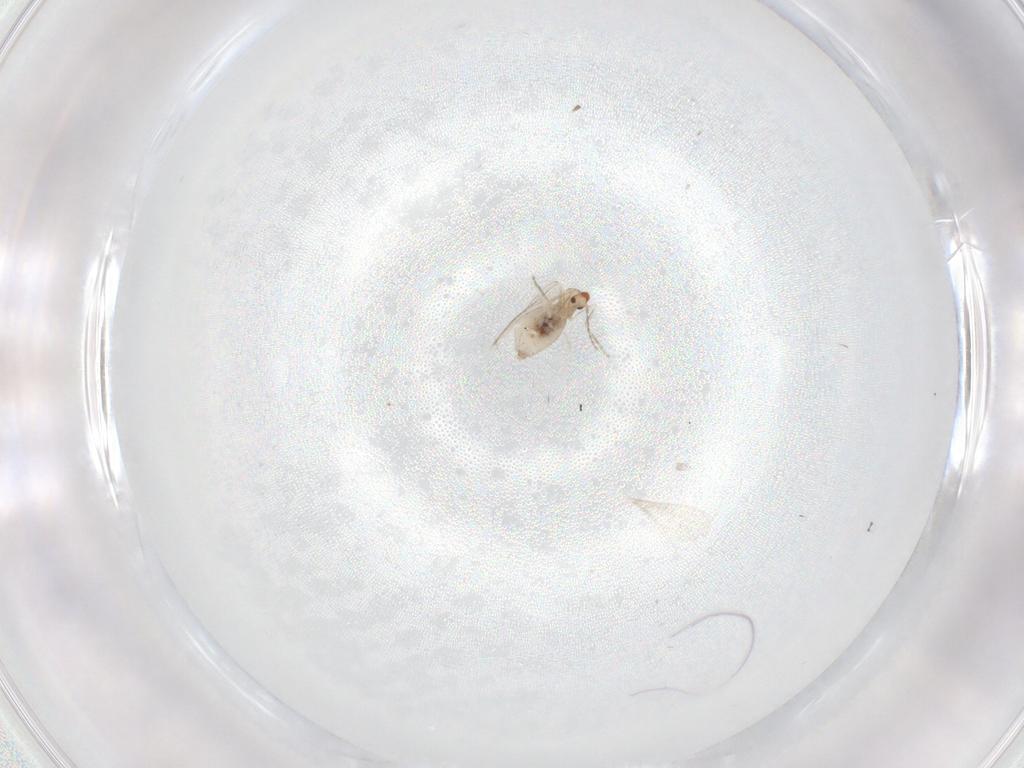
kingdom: Animalia
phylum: Arthropoda
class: Insecta
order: Diptera
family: Cecidomyiidae
